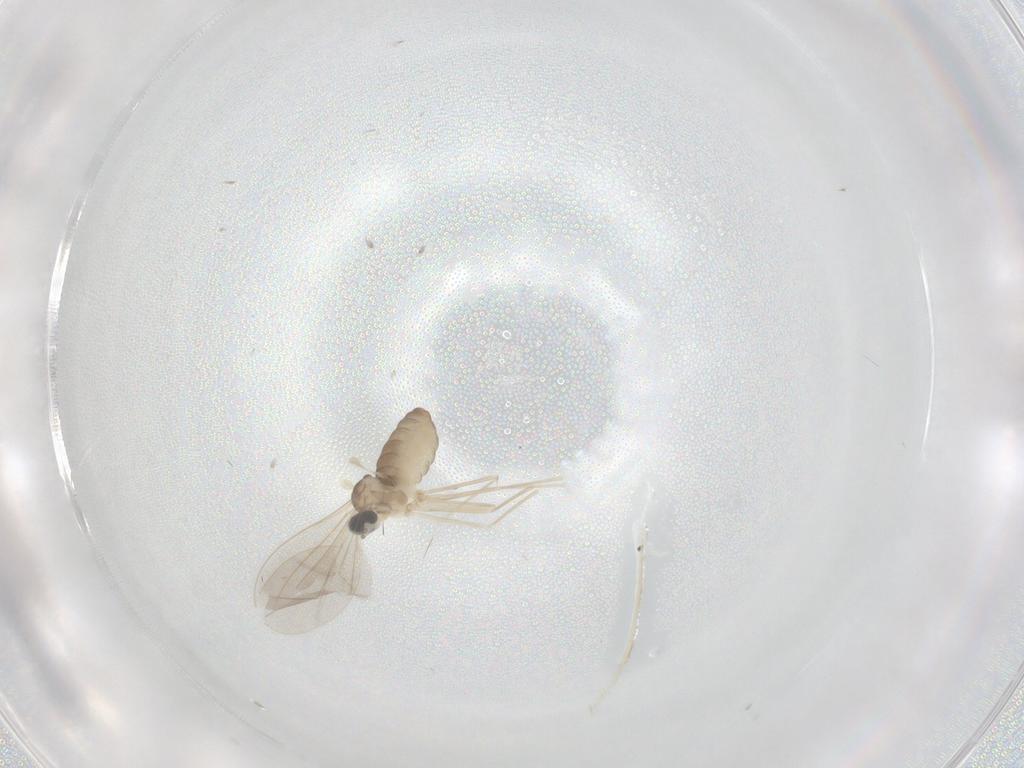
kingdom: Animalia
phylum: Arthropoda
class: Insecta
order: Diptera
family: Cecidomyiidae
